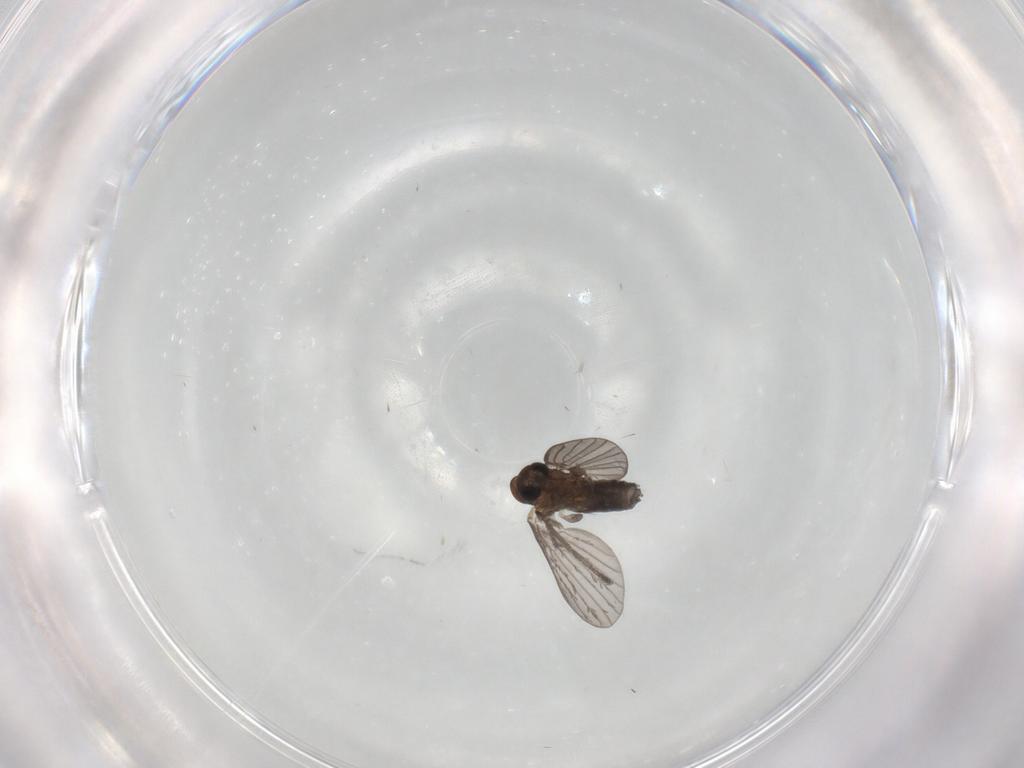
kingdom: Animalia
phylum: Arthropoda
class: Insecta
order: Diptera
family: Psychodidae
